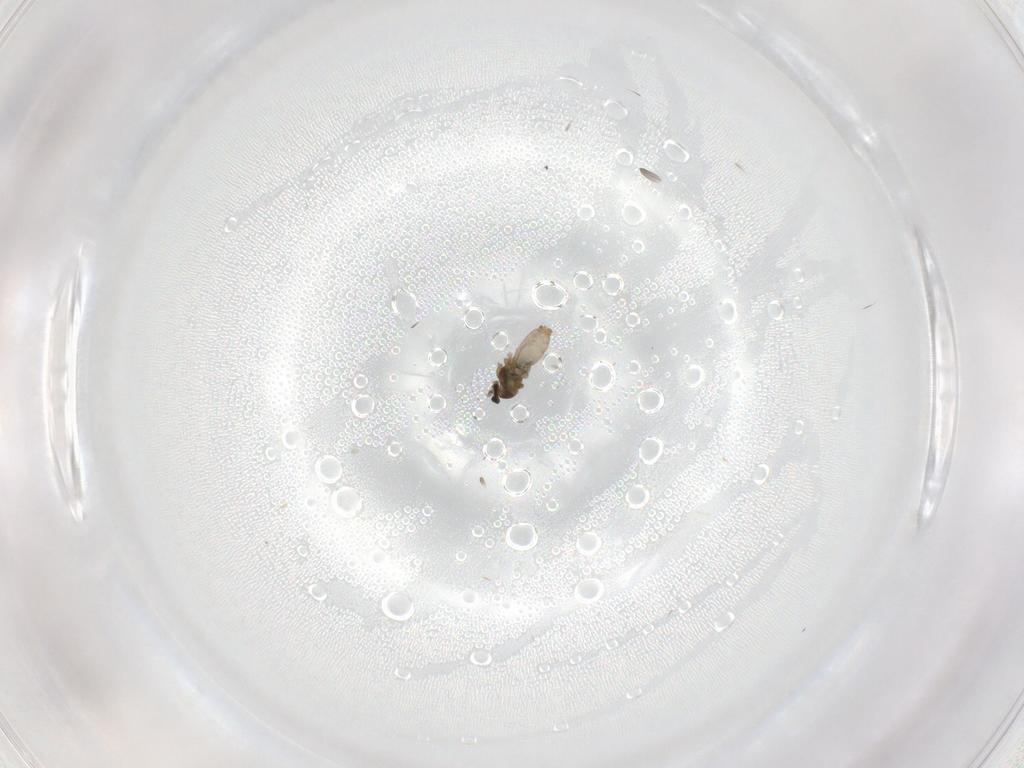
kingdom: Animalia
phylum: Arthropoda
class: Insecta
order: Diptera
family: Cecidomyiidae
